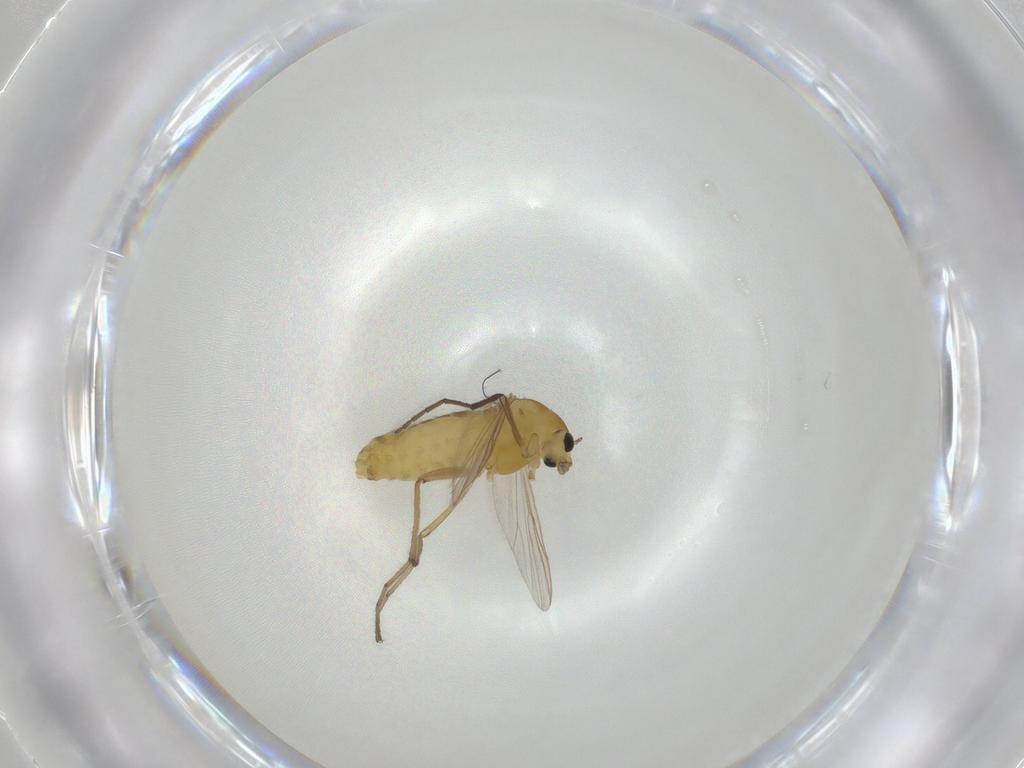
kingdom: Animalia
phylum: Arthropoda
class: Insecta
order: Diptera
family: Chironomidae
